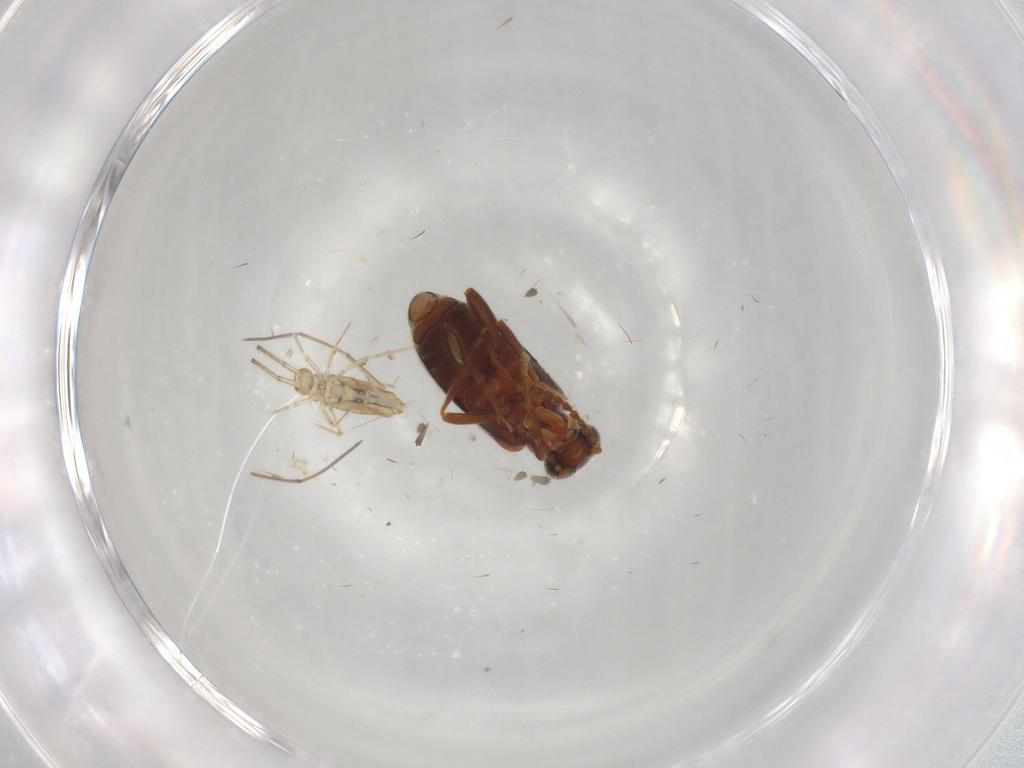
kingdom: Animalia
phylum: Arthropoda
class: Insecta
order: Coleoptera
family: Aderidae
